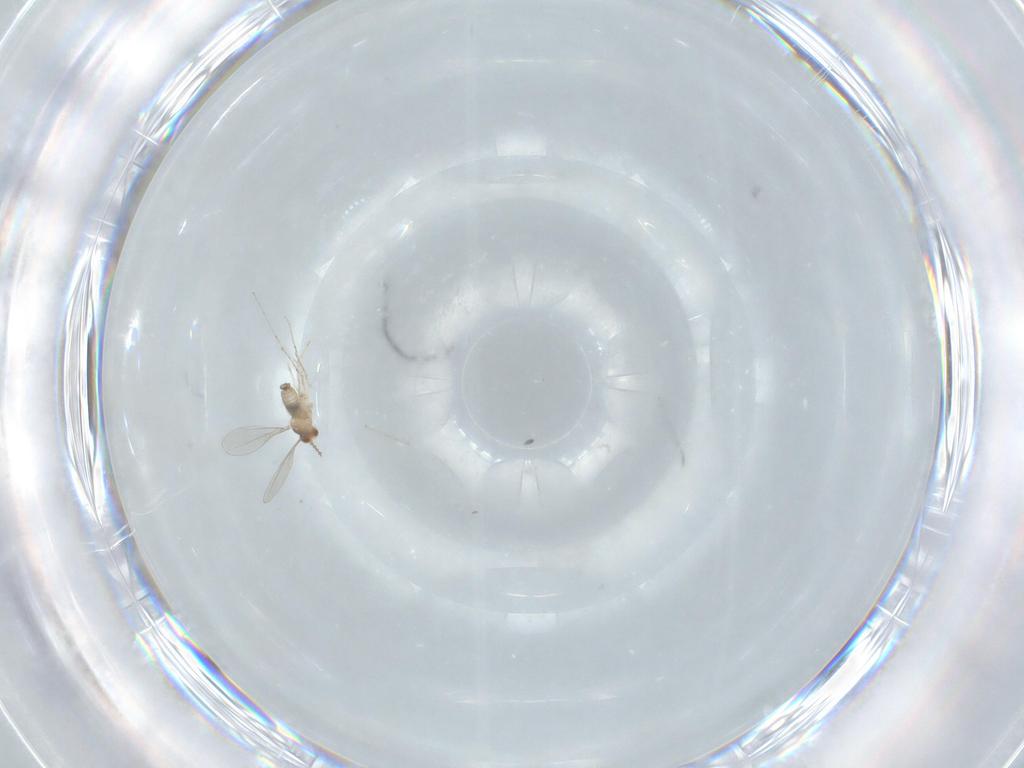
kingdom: Animalia
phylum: Arthropoda
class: Insecta
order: Diptera
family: Cecidomyiidae
